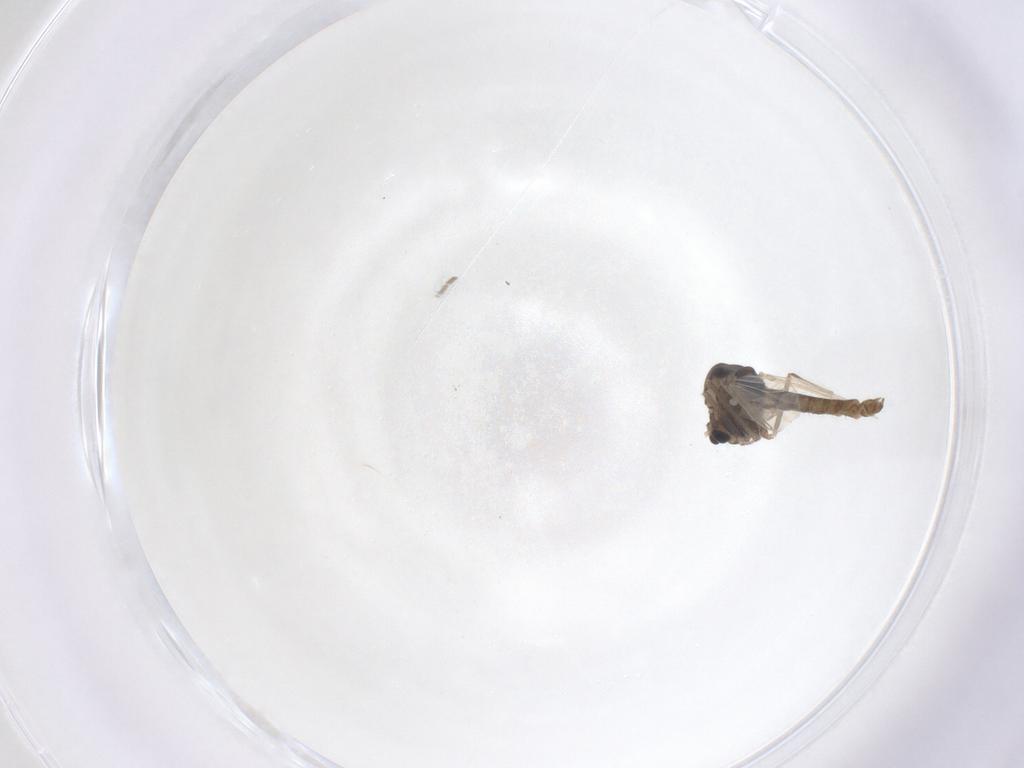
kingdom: Animalia
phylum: Arthropoda
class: Insecta
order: Diptera
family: Chironomidae
